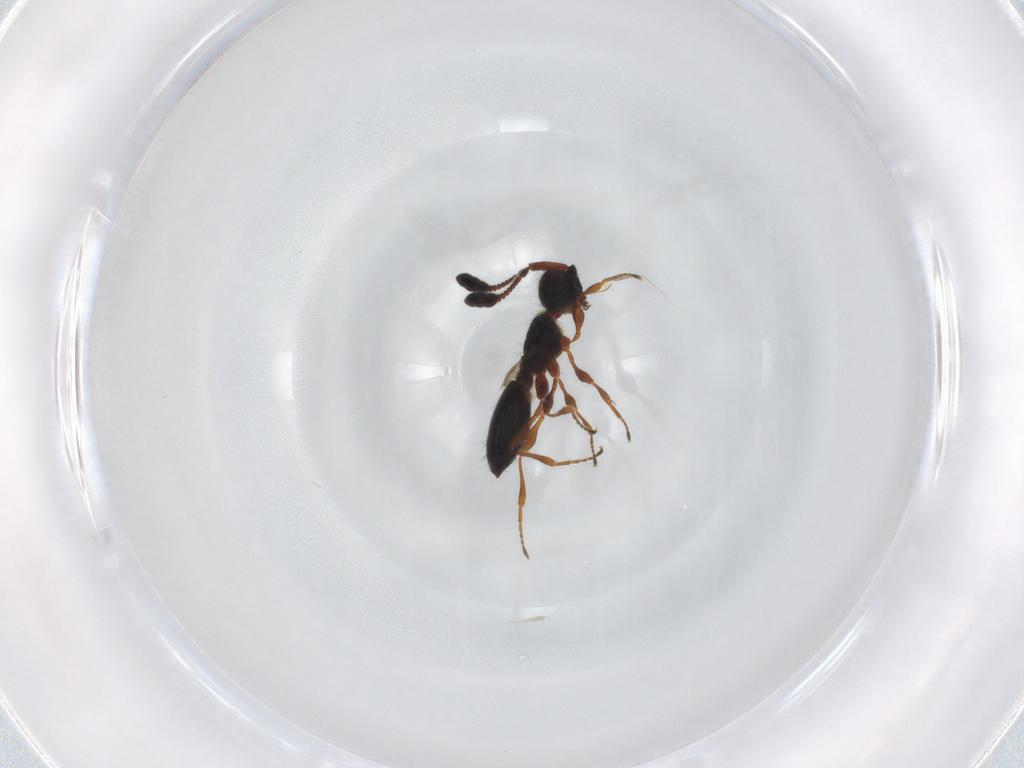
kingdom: Animalia
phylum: Arthropoda
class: Insecta
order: Hymenoptera
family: Diapriidae
